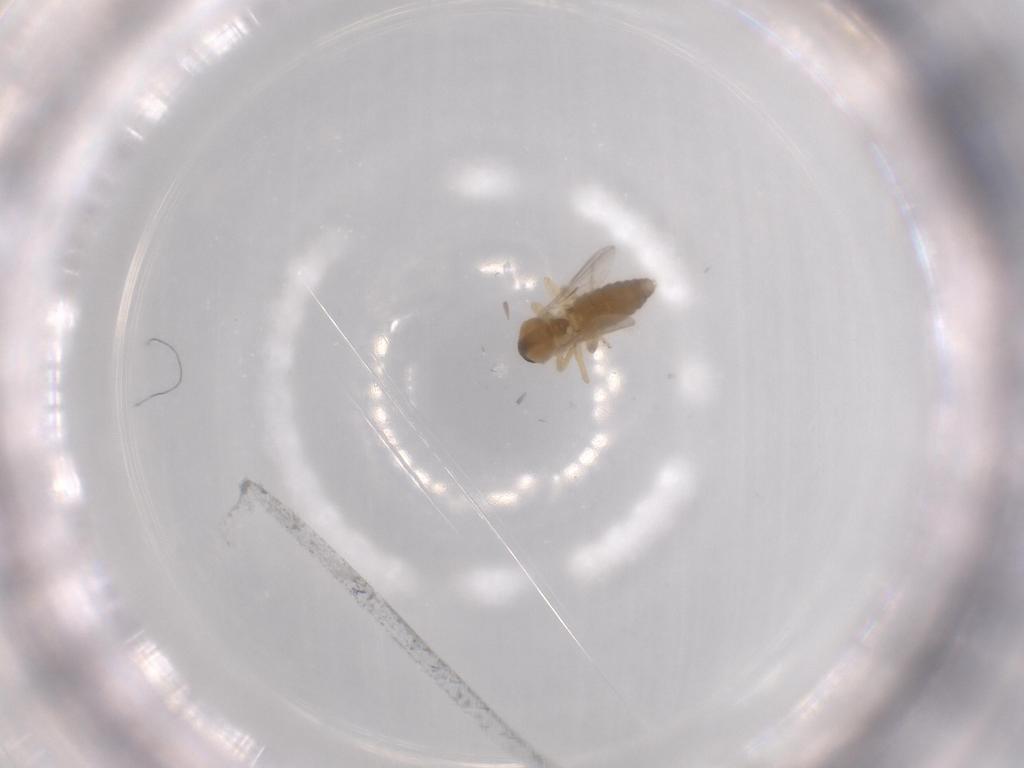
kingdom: Animalia
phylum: Arthropoda
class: Insecta
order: Diptera
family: Ceratopogonidae
